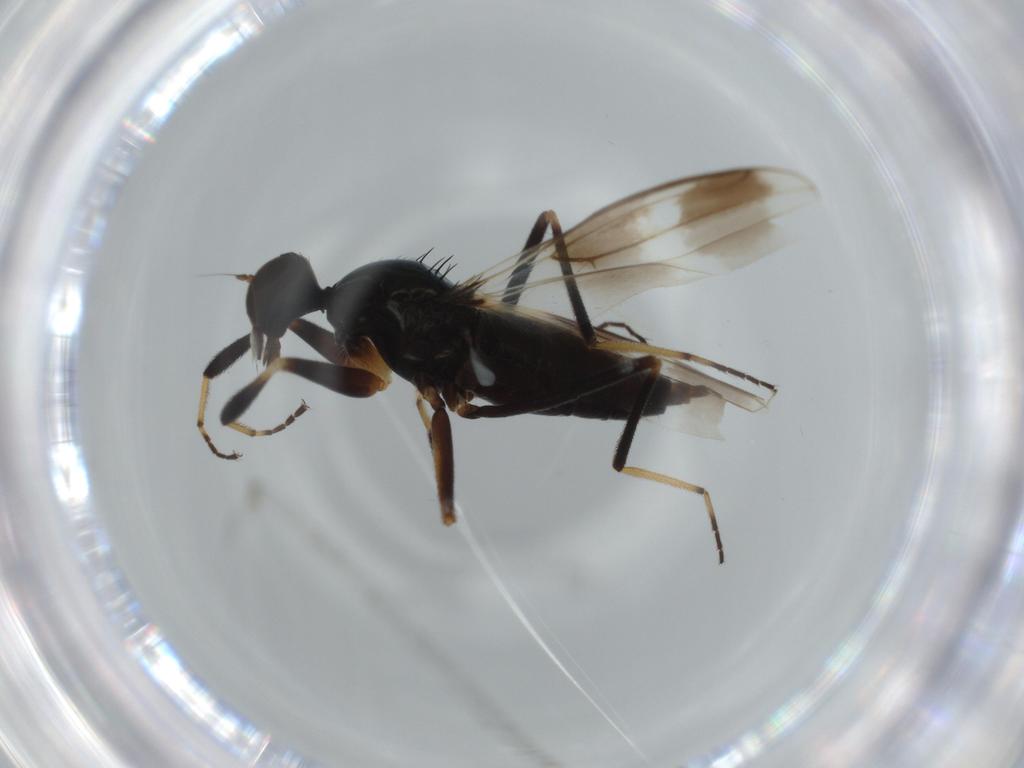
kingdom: Animalia
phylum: Arthropoda
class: Insecta
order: Diptera
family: Hybotidae
